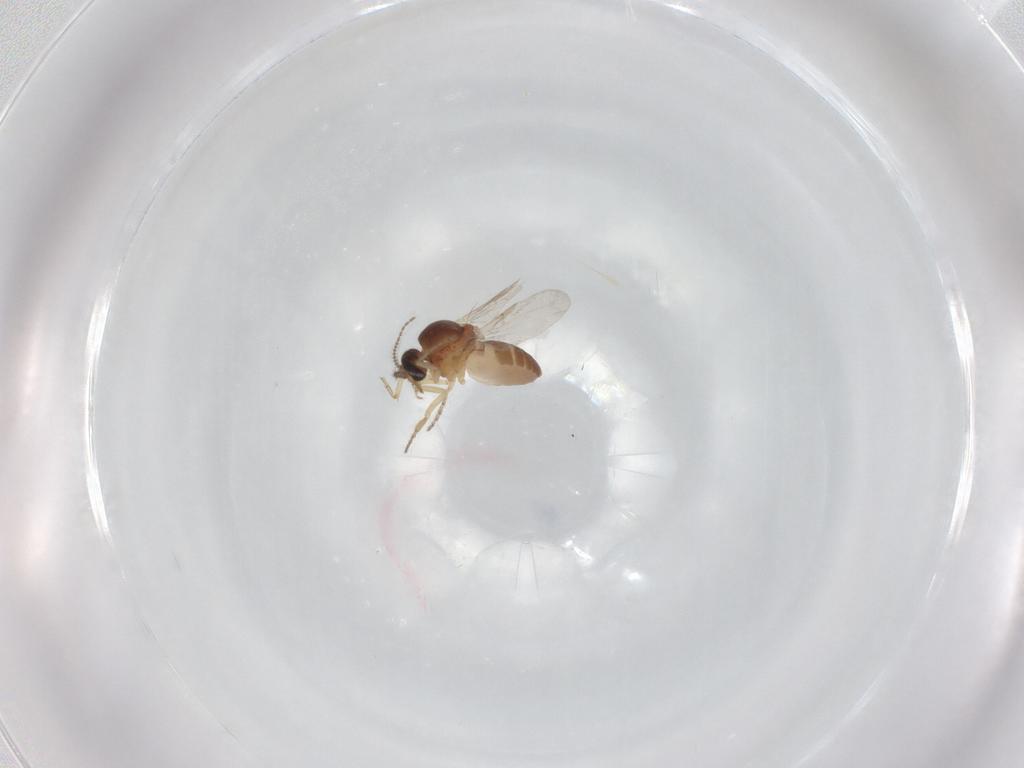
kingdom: Animalia
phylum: Arthropoda
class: Insecta
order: Diptera
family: Ceratopogonidae
